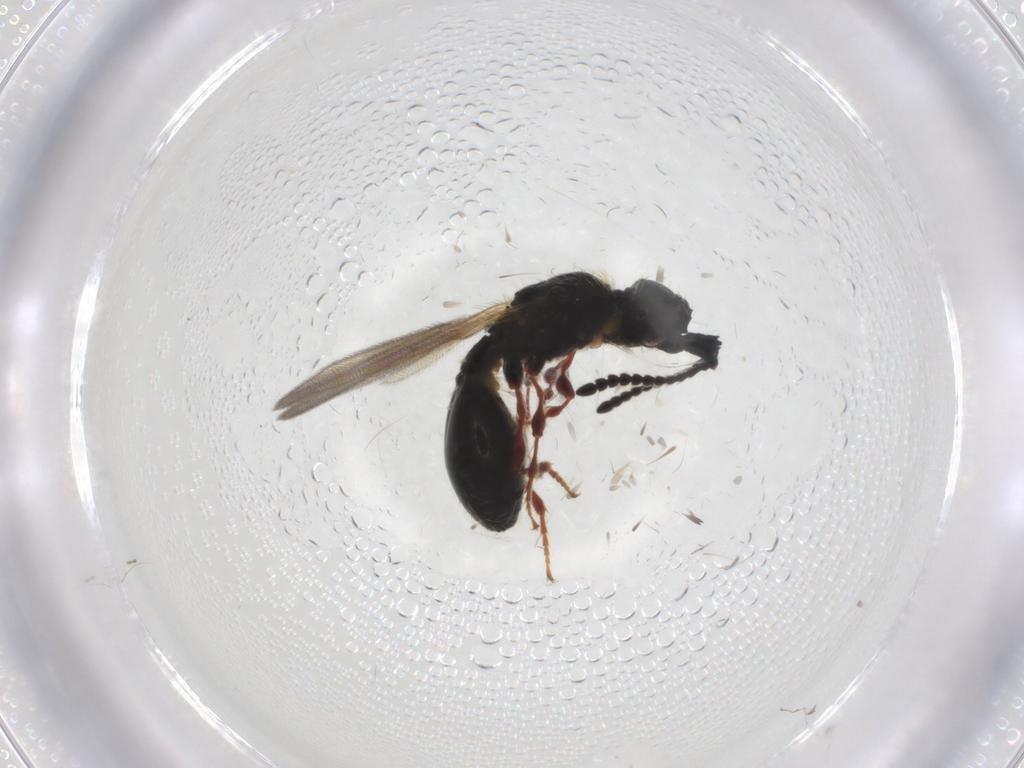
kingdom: Animalia
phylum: Arthropoda
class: Insecta
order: Hymenoptera
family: Diapriidae
